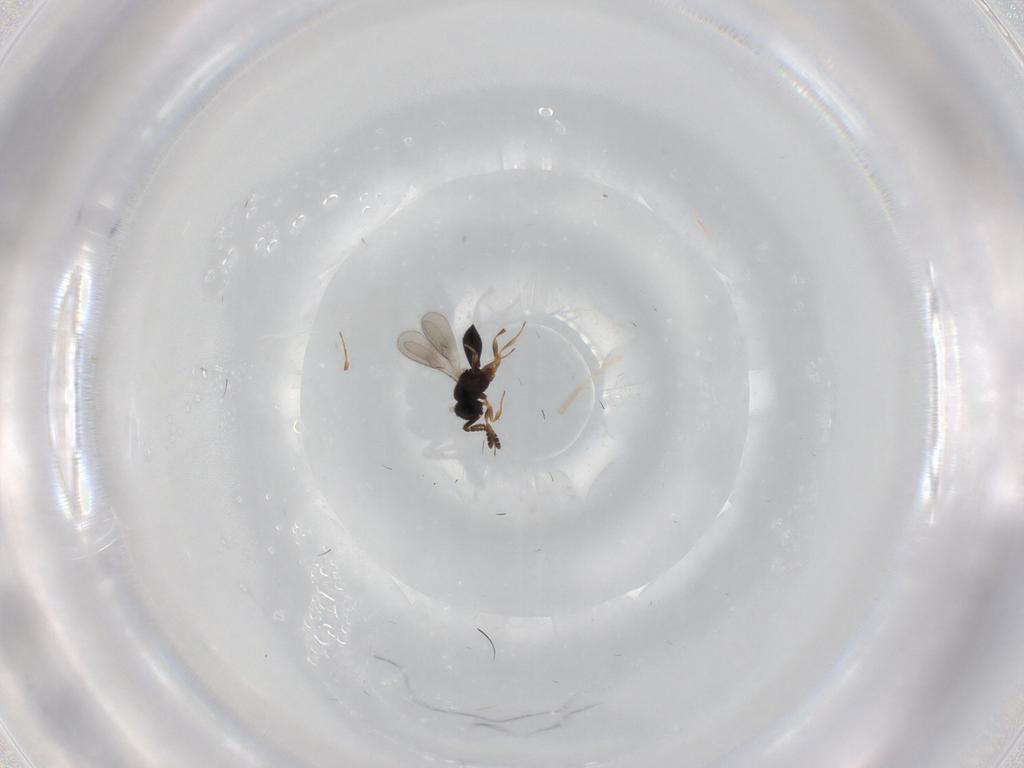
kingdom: Animalia
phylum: Arthropoda
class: Insecta
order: Hymenoptera
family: Scelionidae
